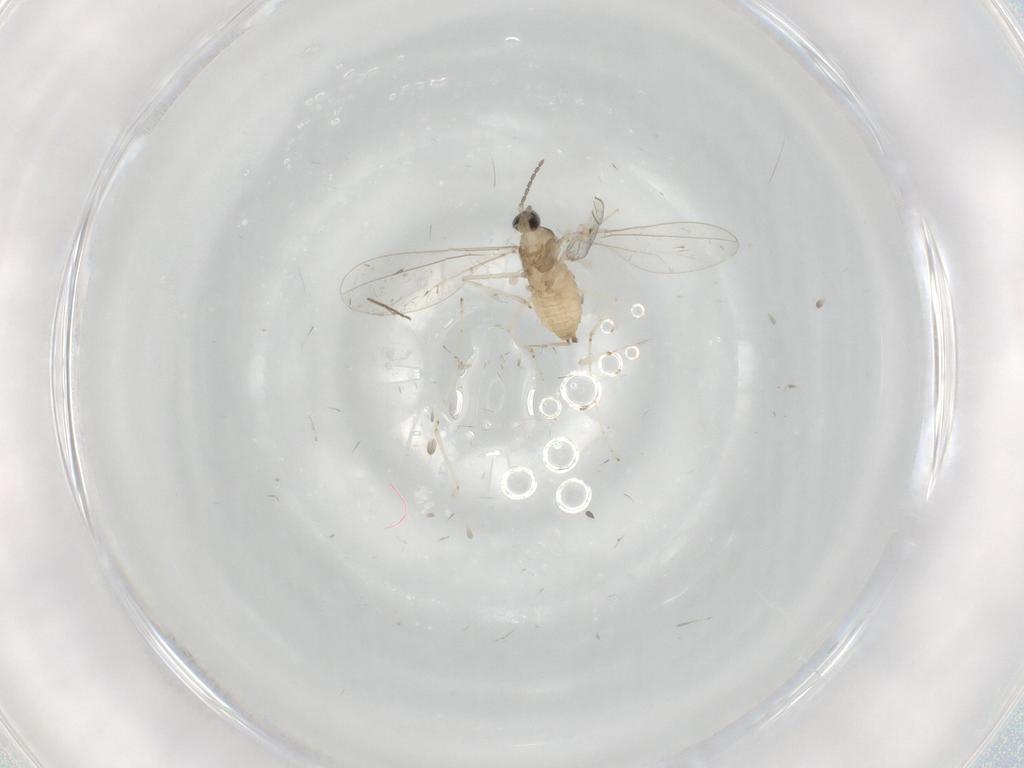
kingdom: Animalia
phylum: Arthropoda
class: Insecta
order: Diptera
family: Cecidomyiidae
